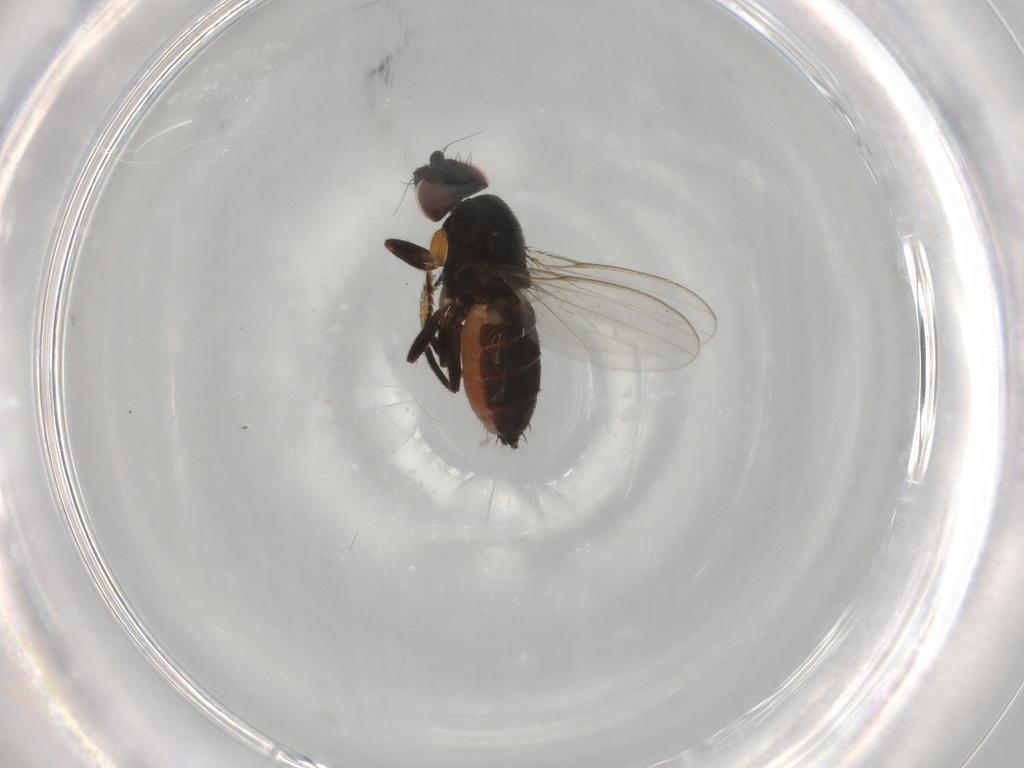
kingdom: Animalia
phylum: Arthropoda
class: Insecta
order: Diptera
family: Milichiidae
